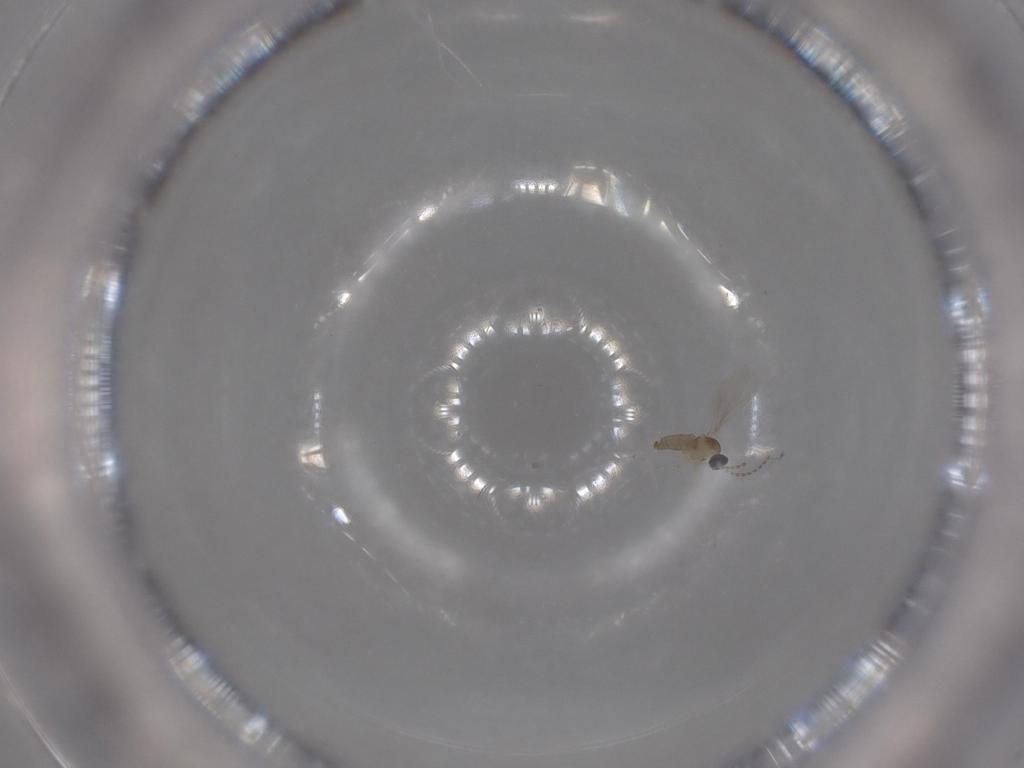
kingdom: Animalia
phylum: Arthropoda
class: Insecta
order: Diptera
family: Cecidomyiidae
